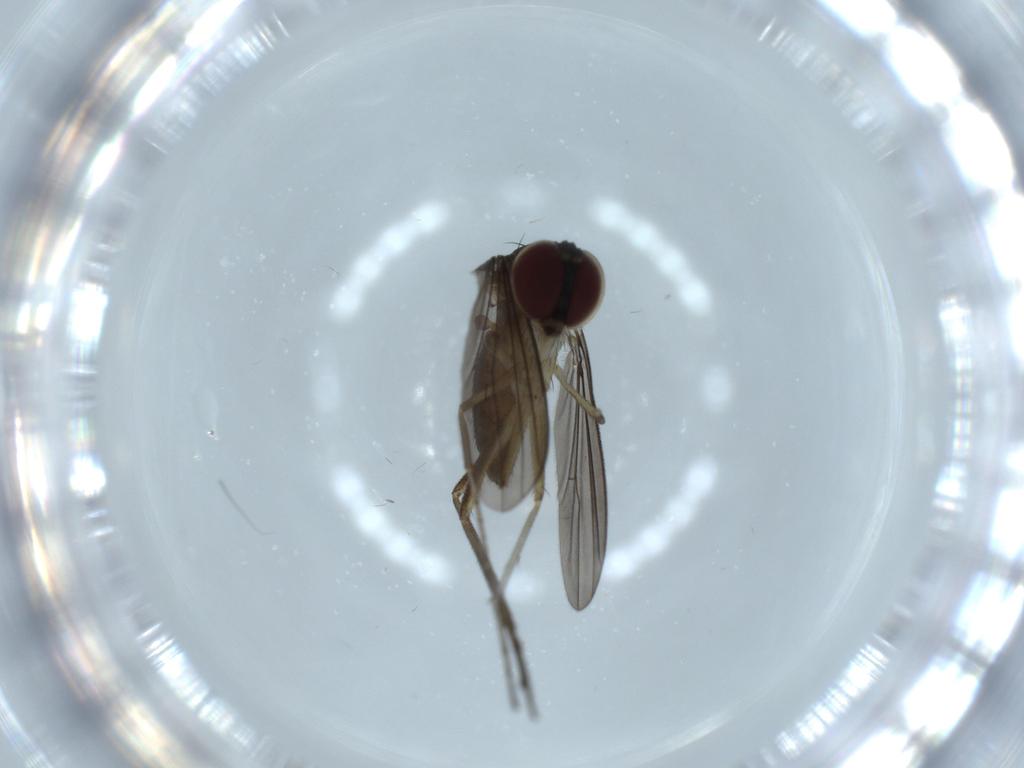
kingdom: Animalia
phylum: Arthropoda
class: Insecta
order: Diptera
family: Dolichopodidae
